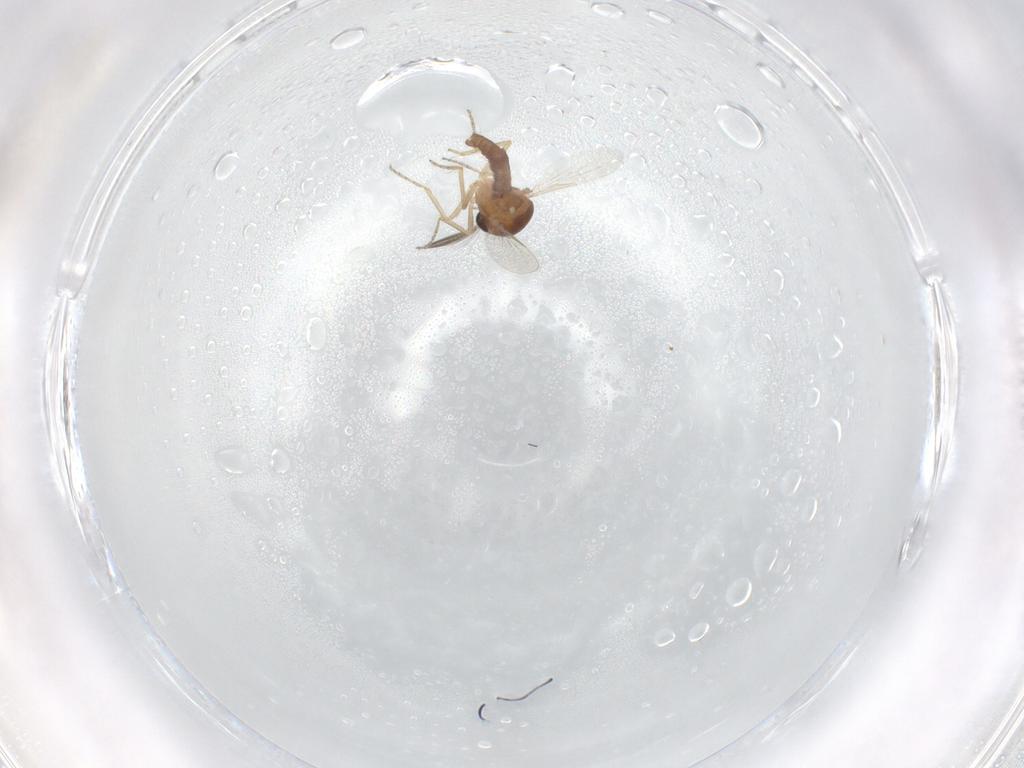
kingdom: Animalia
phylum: Arthropoda
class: Insecta
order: Diptera
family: Ceratopogonidae
